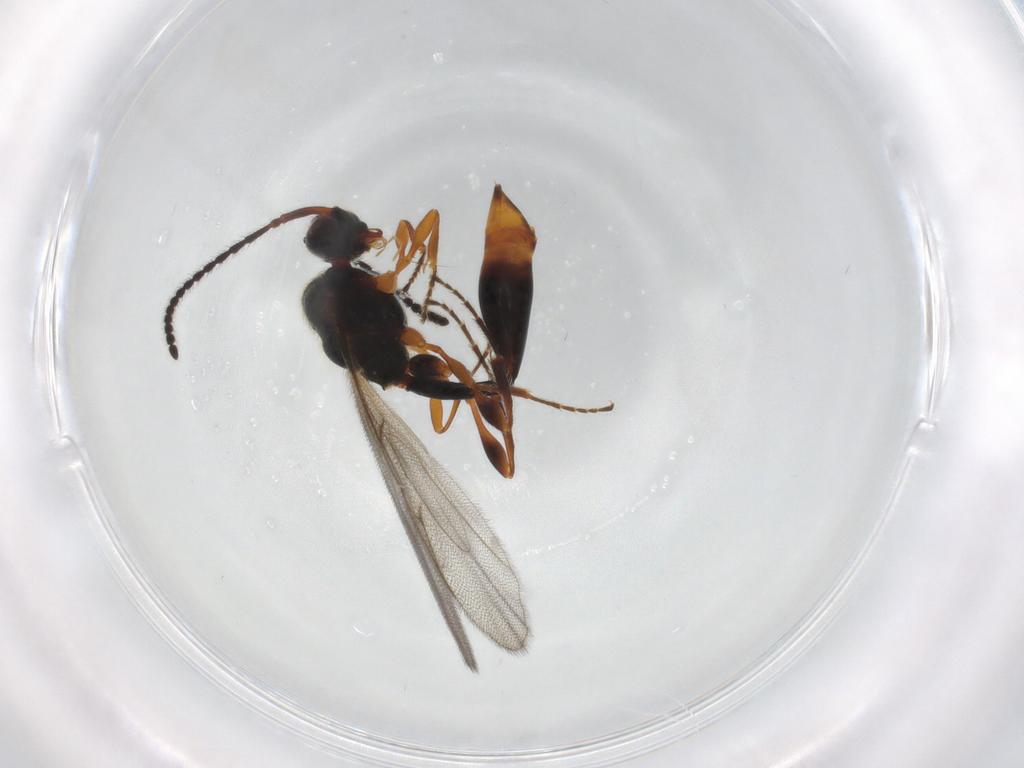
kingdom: Animalia
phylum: Arthropoda
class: Insecta
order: Hymenoptera
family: Diapriidae
